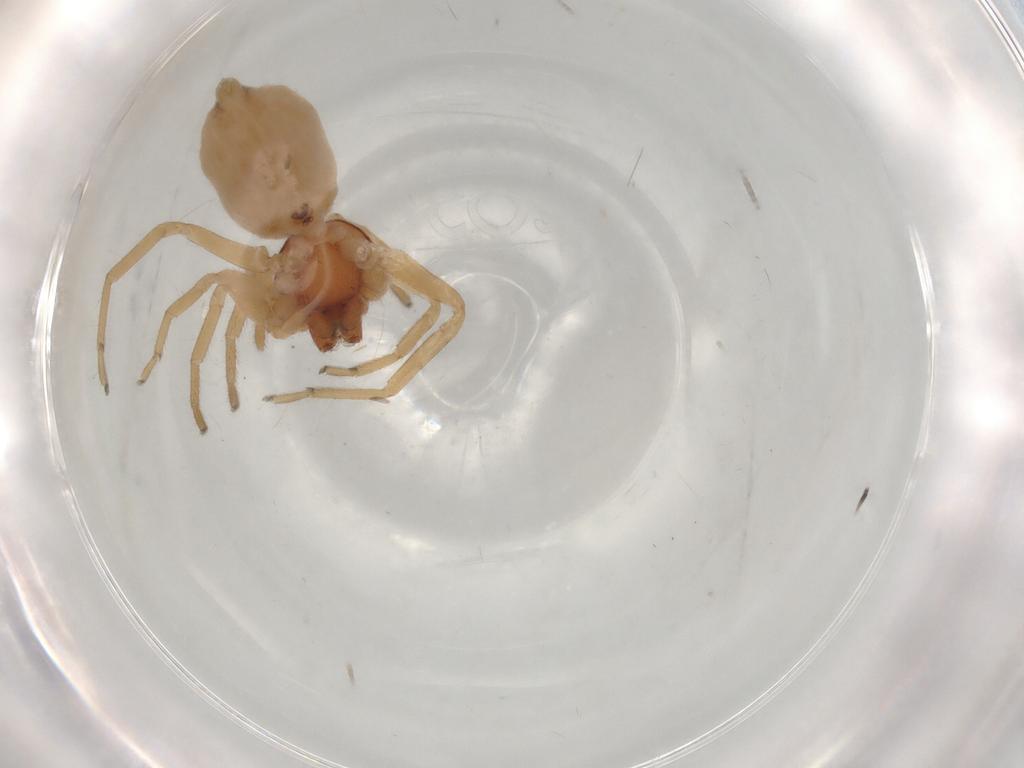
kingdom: Animalia
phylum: Arthropoda
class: Arachnida
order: Araneae
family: Trachelidae
